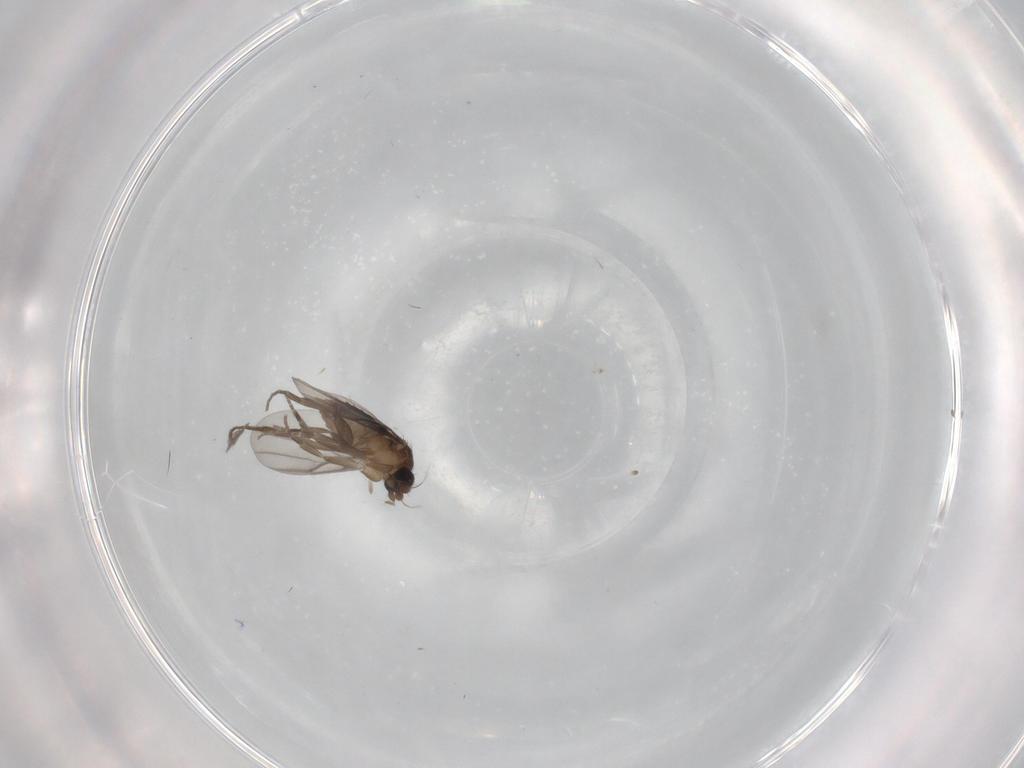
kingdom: Animalia
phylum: Arthropoda
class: Insecta
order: Diptera
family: Phoridae
